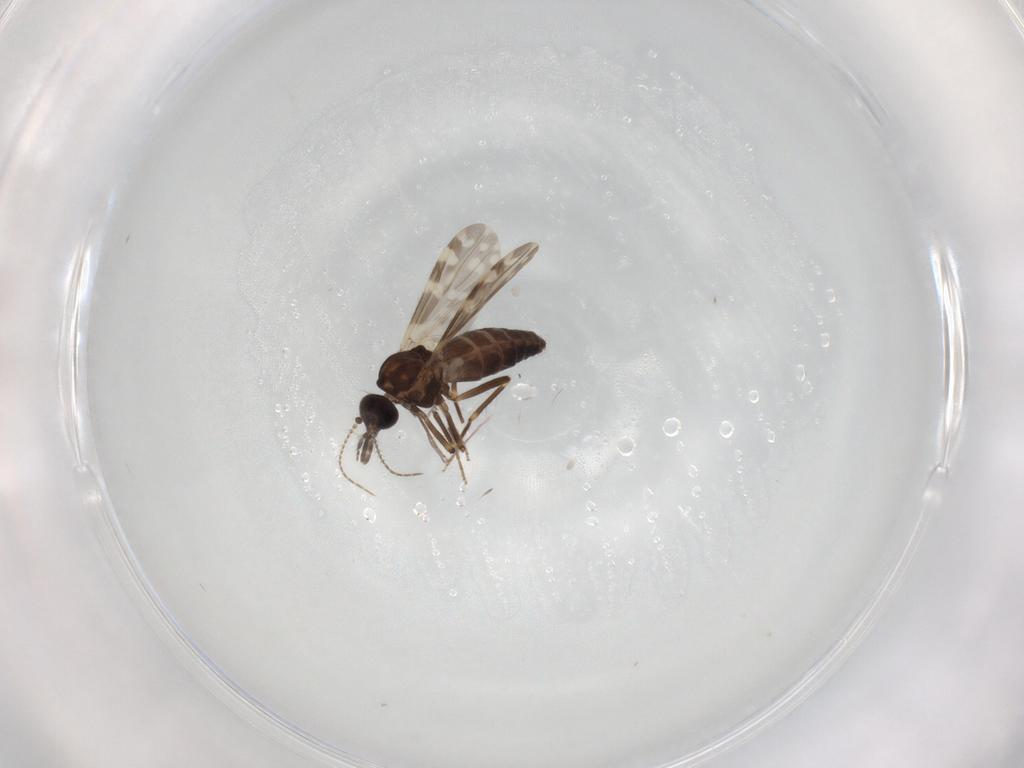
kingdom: Animalia
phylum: Arthropoda
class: Insecta
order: Diptera
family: Ceratopogonidae
